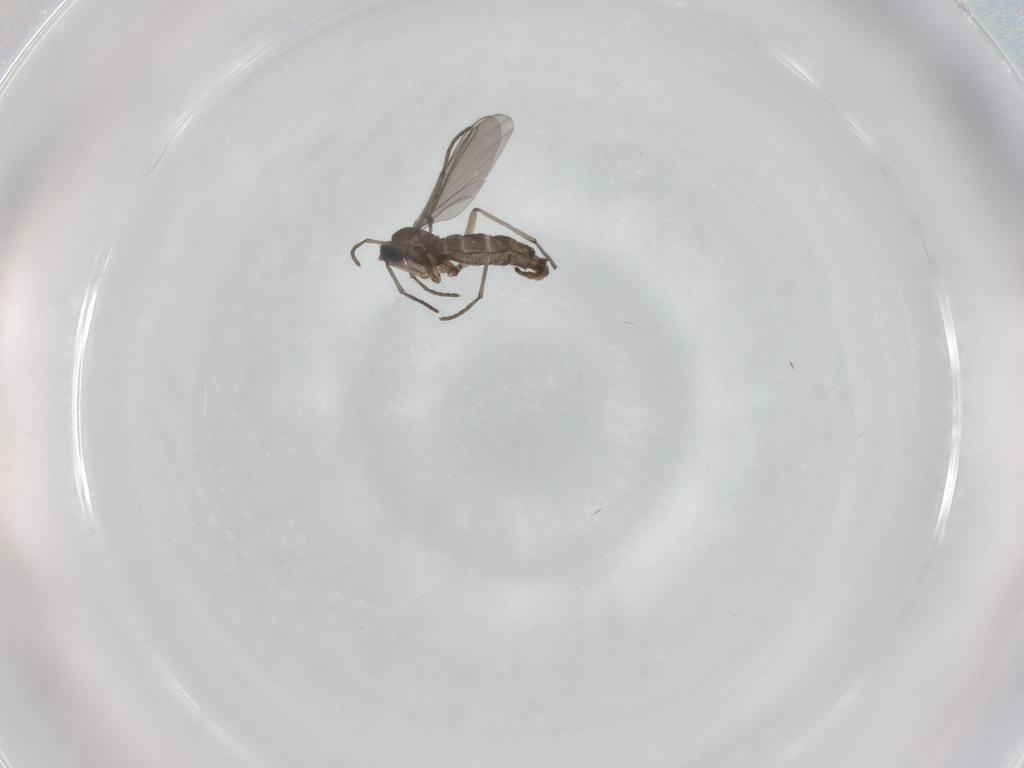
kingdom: Animalia
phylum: Arthropoda
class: Insecta
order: Diptera
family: Sciaridae
